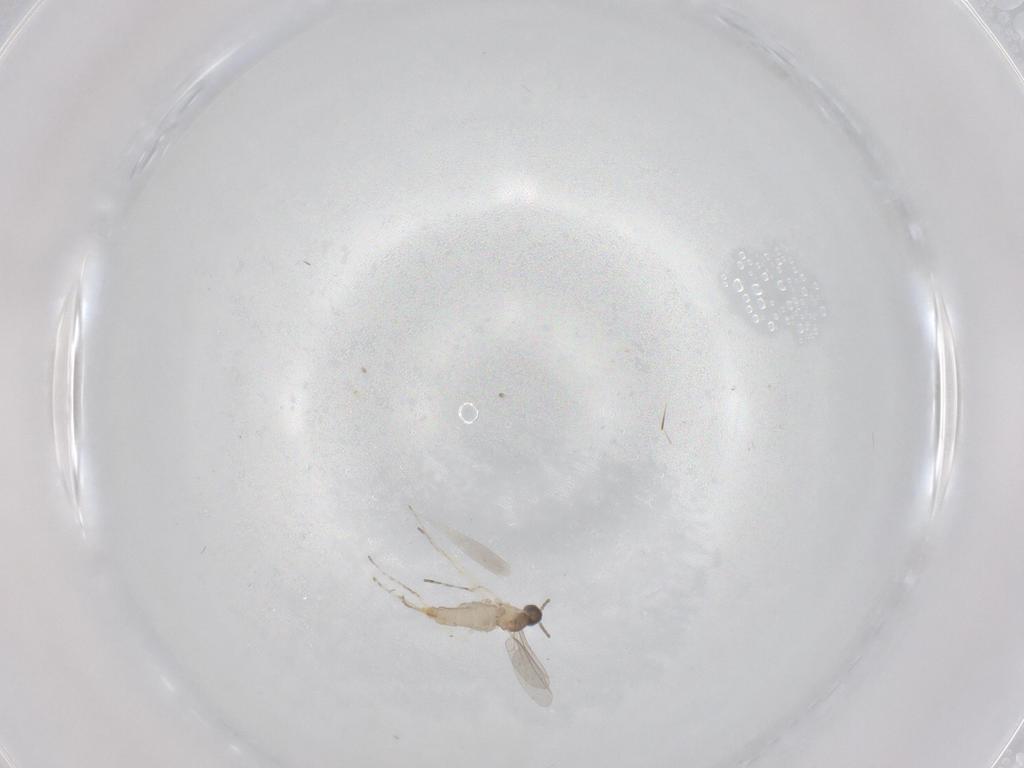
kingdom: Animalia
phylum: Arthropoda
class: Insecta
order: Diptera
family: Cecidomyiidae
